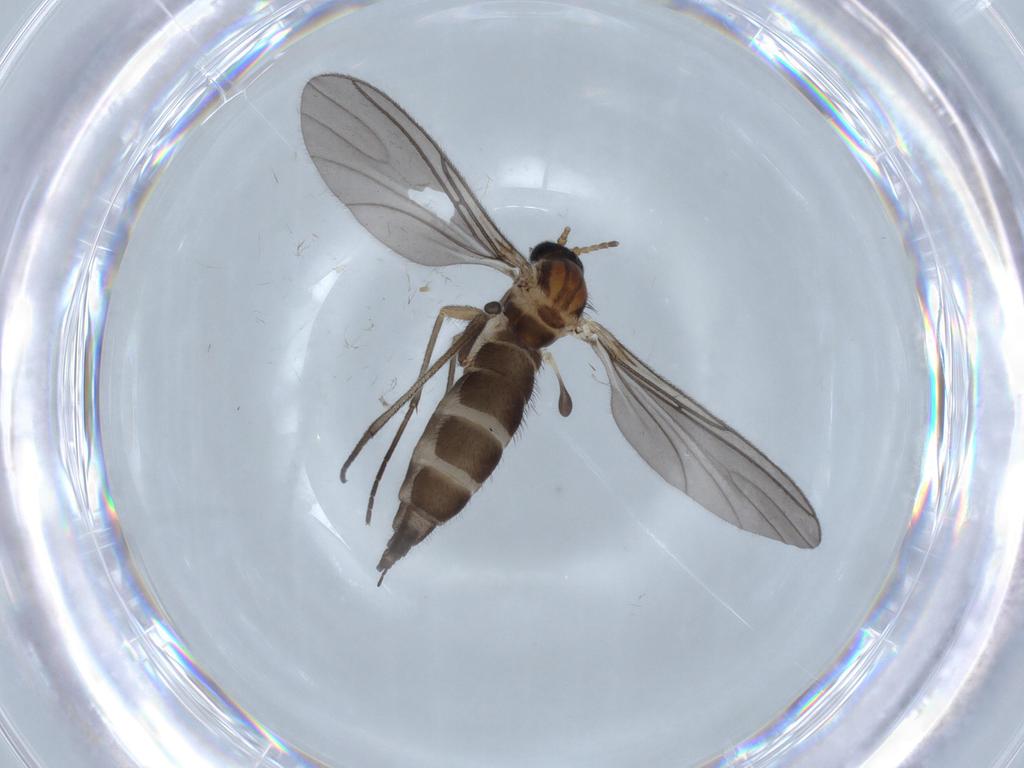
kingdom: Animalia
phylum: Arthropoda
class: Insecta
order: Diptera
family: Sciaridae
